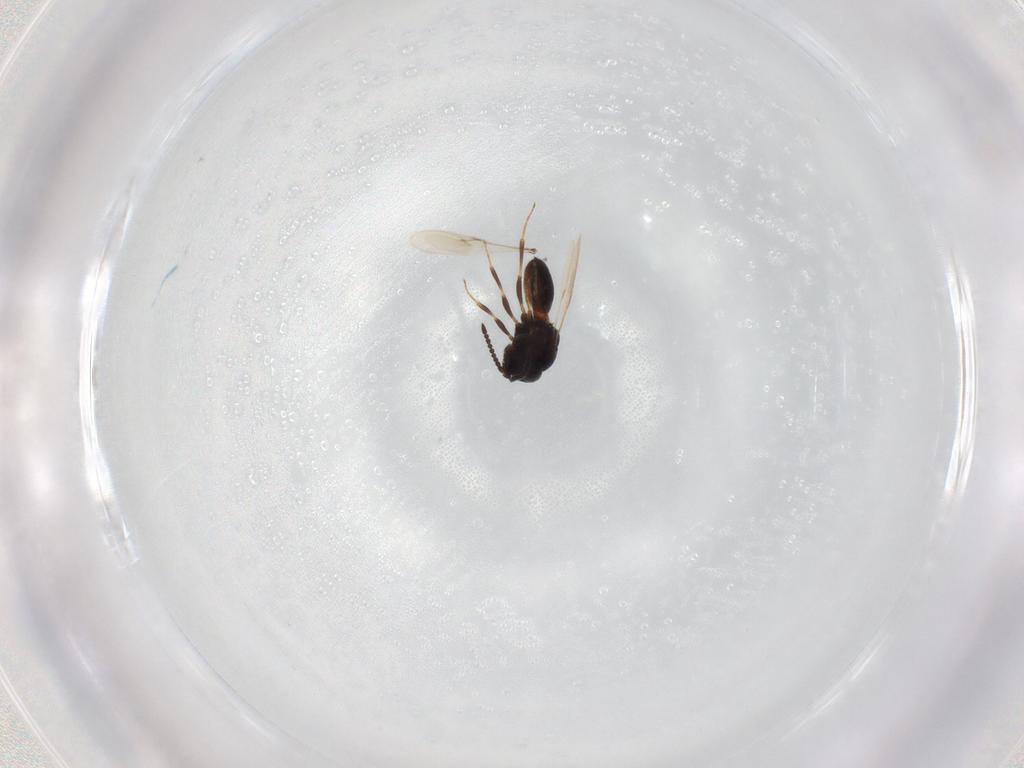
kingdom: Animalia
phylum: Arthropoda
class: Insecta
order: Hymenoptera
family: Scelionidae
